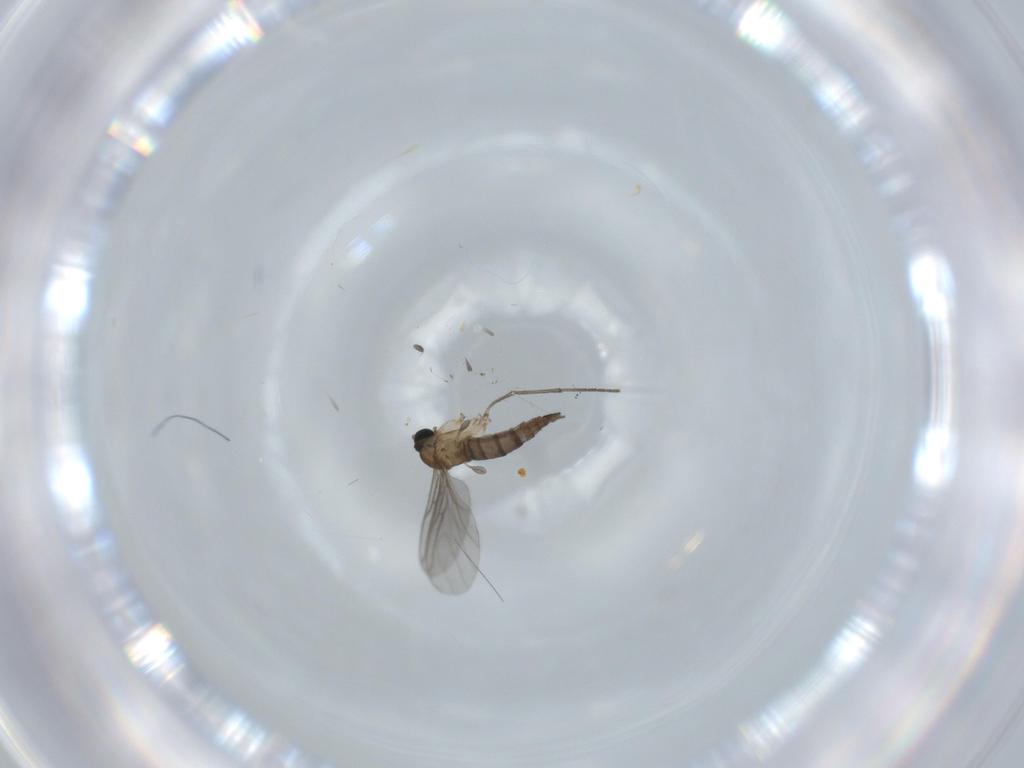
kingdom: Animalia
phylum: Arthropoda
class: Insecta
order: Diptera
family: Sciaridae
